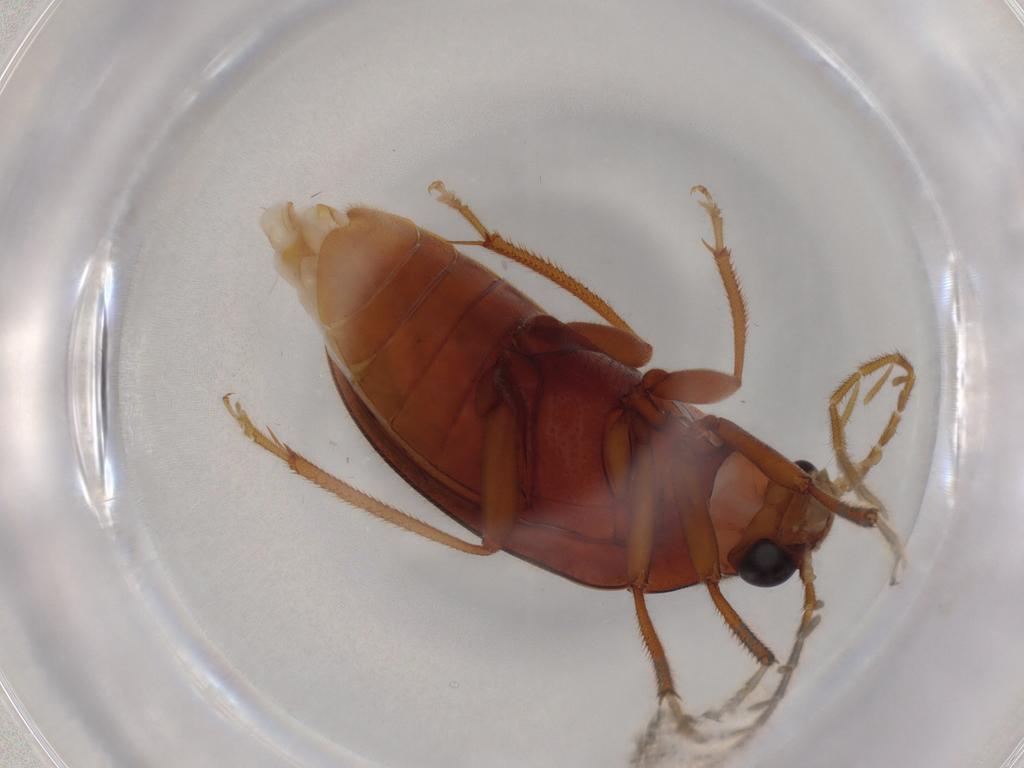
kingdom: Animalia
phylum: Arthropoda
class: Insecta
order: Coleoptera
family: Ptilodactylidae
